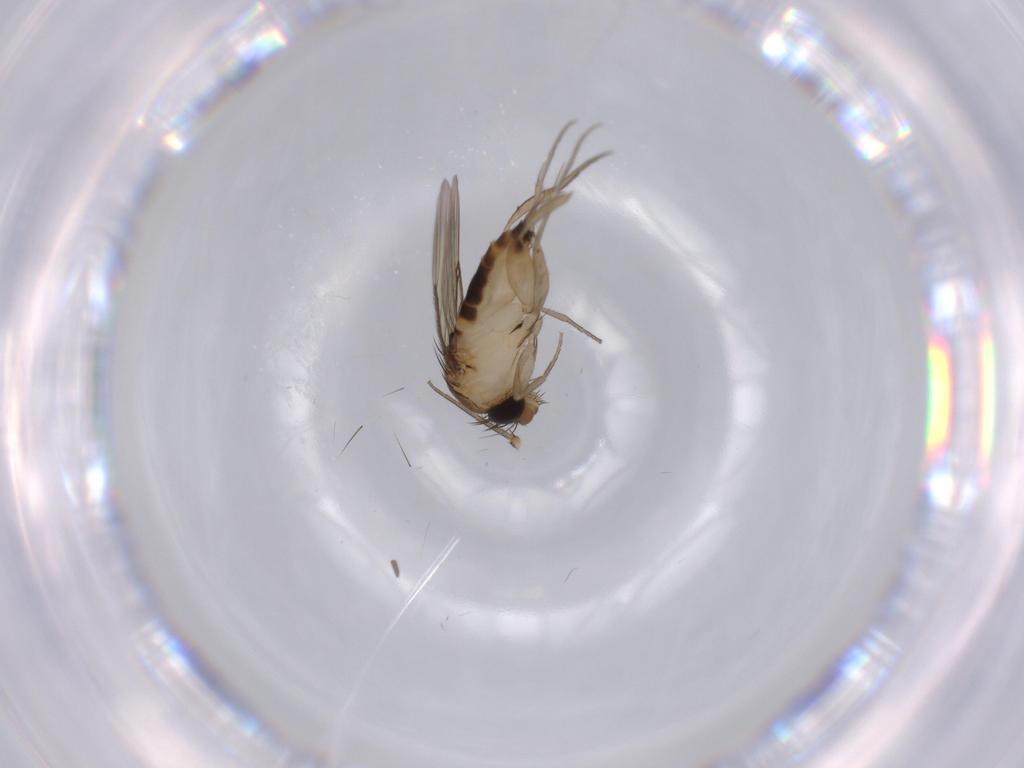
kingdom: Animalia
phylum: Arthropoda
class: Insecta
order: Diptera
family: Phoridae
